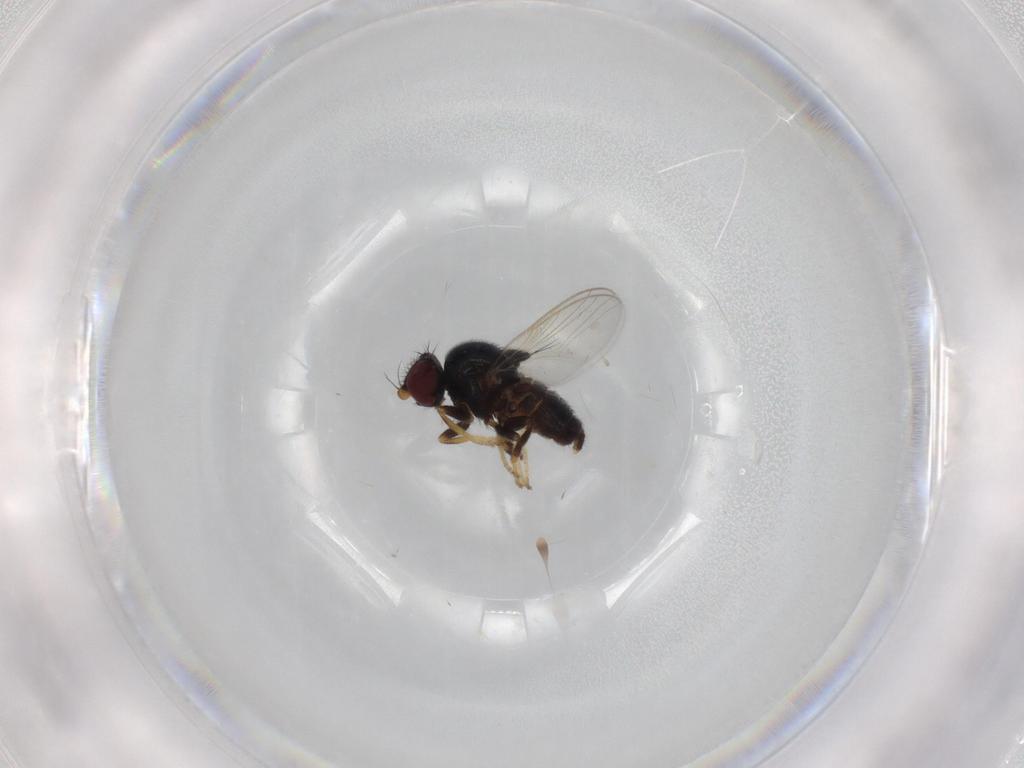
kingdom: Animalia
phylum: Arthropoda
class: Insecta
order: Diptera
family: Chloropidae
